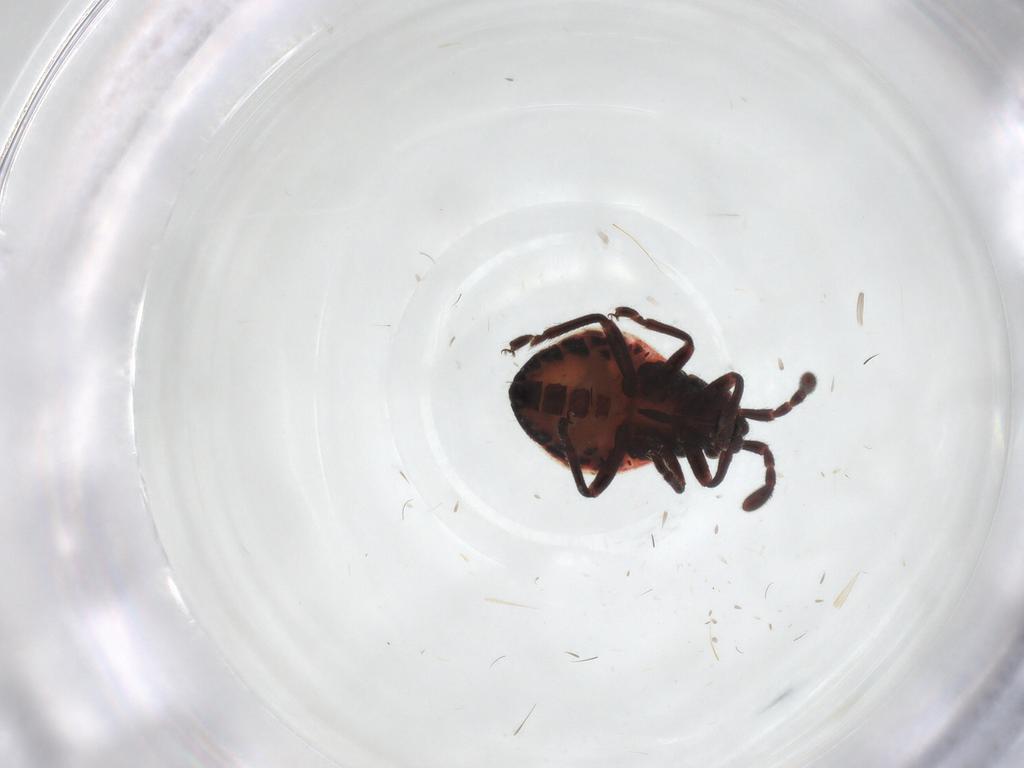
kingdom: Animalia
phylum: Arthropoda
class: Insecta
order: Hemiptera
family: Largidae
